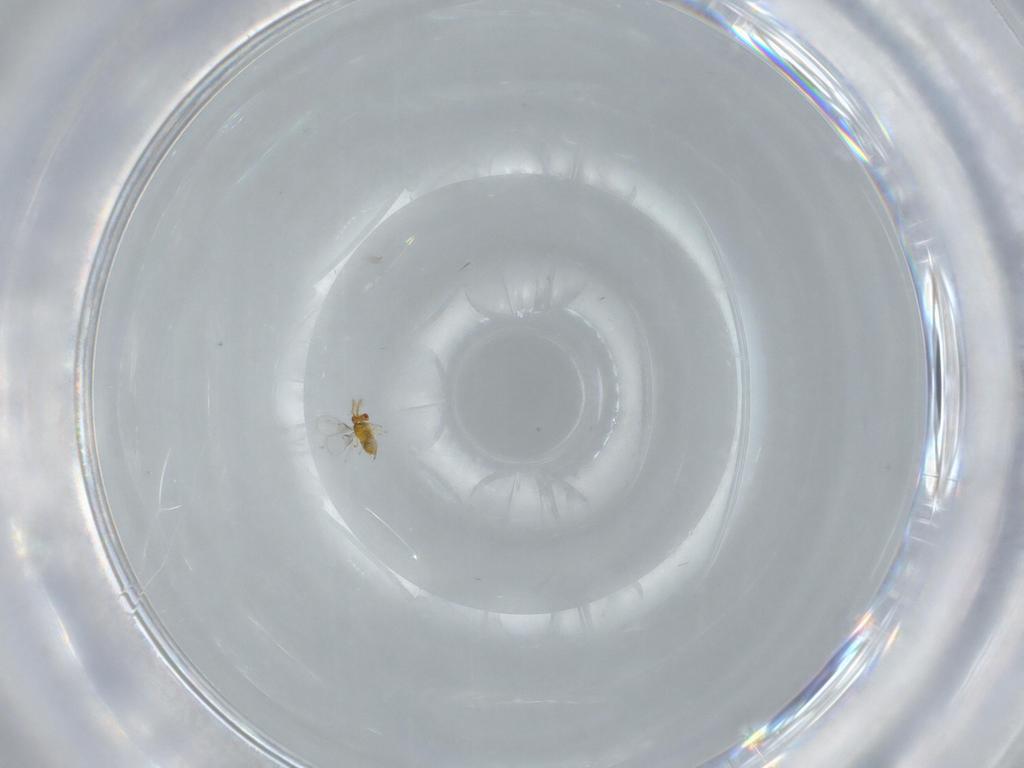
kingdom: Animalia
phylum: Arthropoda
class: Insecta
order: Hymenoptera
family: Trichogrammatidae
